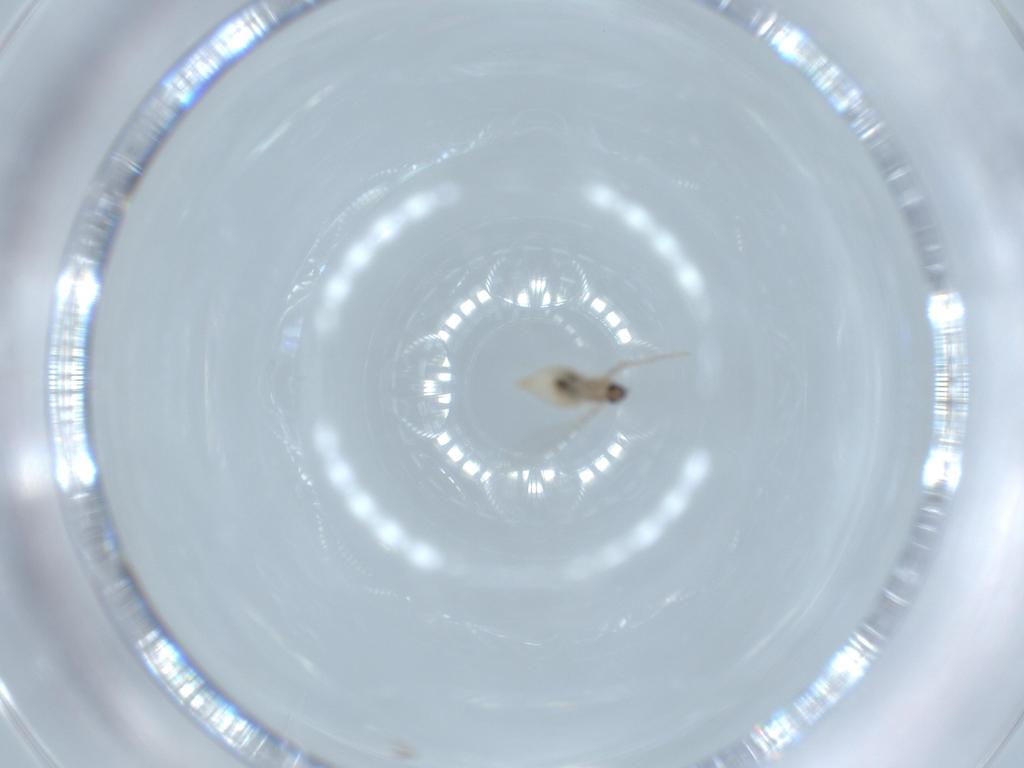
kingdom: Animalia
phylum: Arthropoda
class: Insecta
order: Diptera
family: Cecidomyiidae
